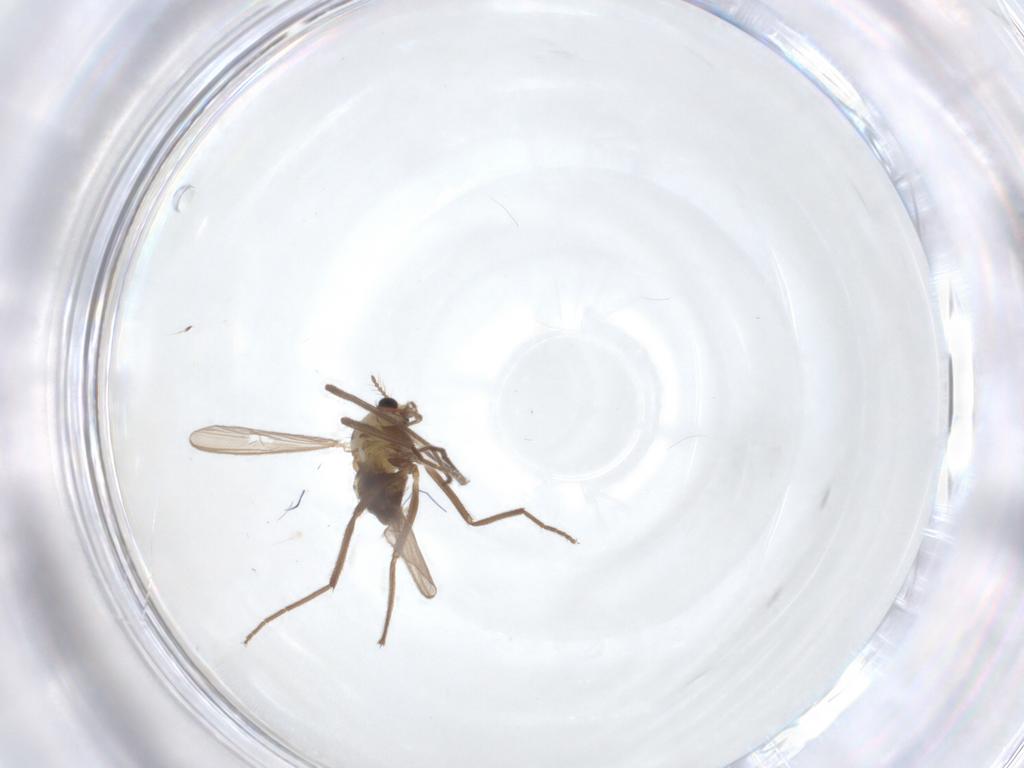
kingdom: Animalia
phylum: Arthropoda
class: Insecta
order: Diptera
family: Chironomidae
